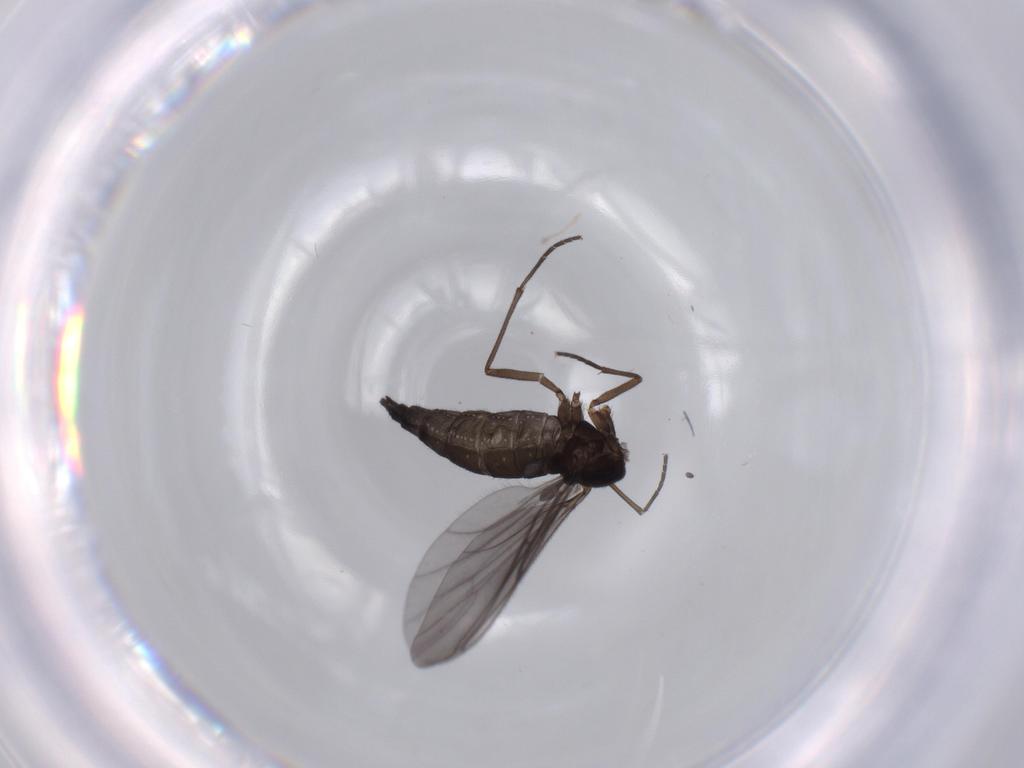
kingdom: Animalia
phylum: Arthropoda
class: Insecta
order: Diptera
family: Sciaridae
